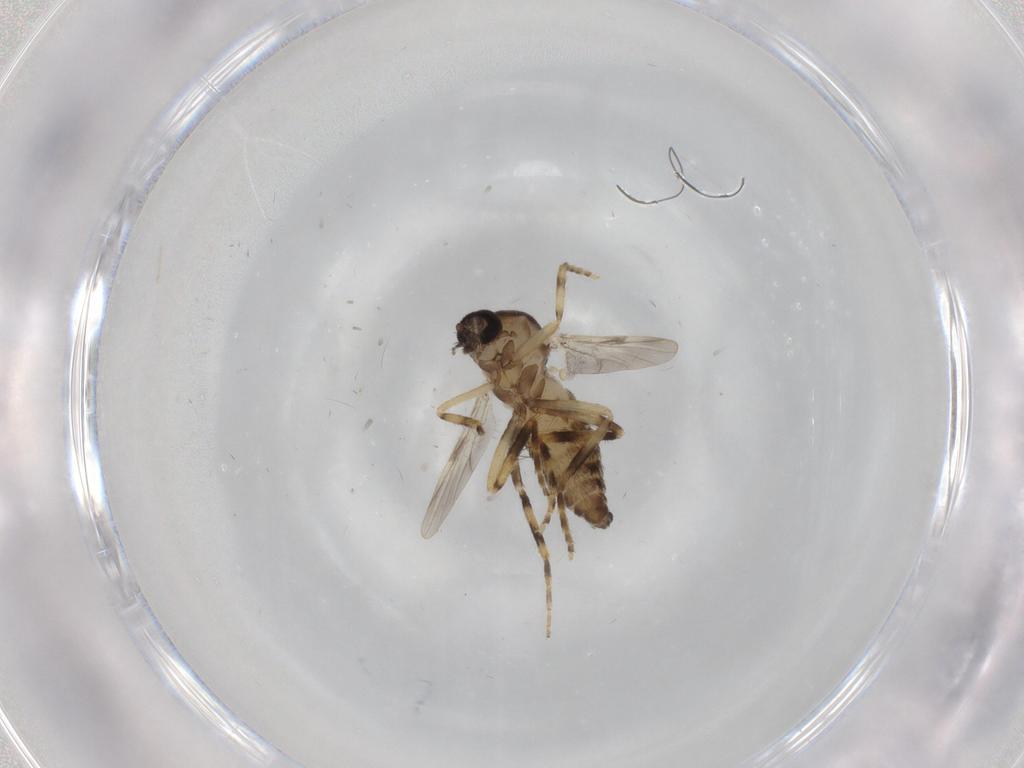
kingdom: Animalia
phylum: Arthropoda
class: Insecta
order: Diptera
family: Ceratopogonidae
